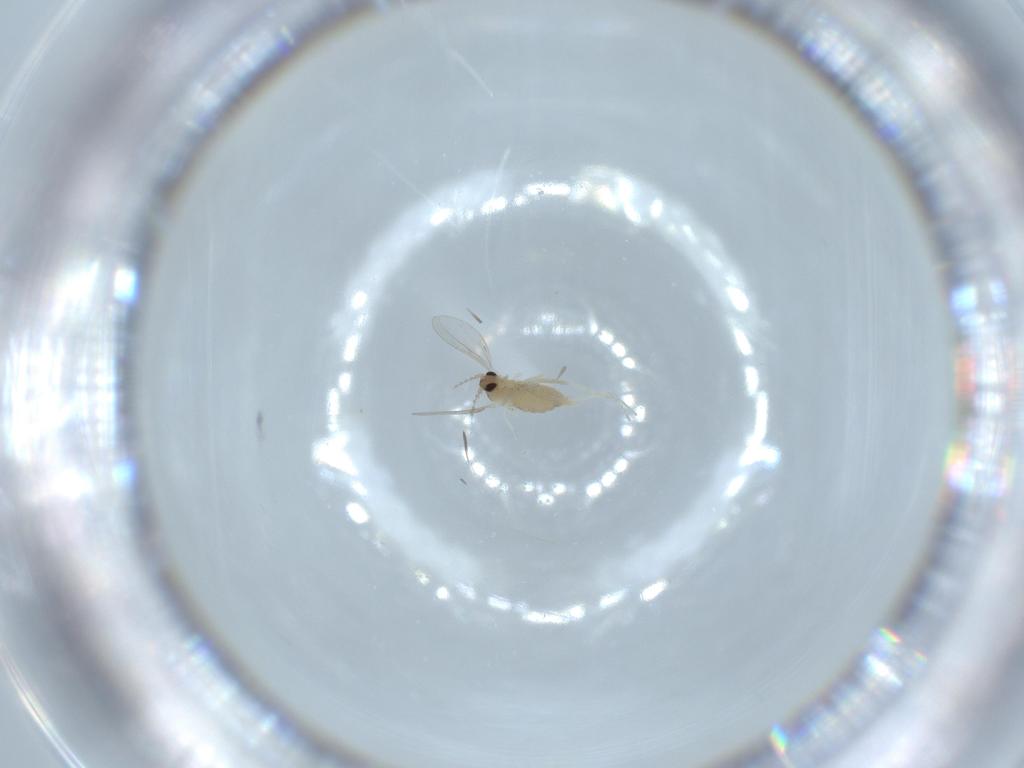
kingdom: Animalia
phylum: Arthropoda
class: Insecta
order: Diptera
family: Cecidomyiidae
